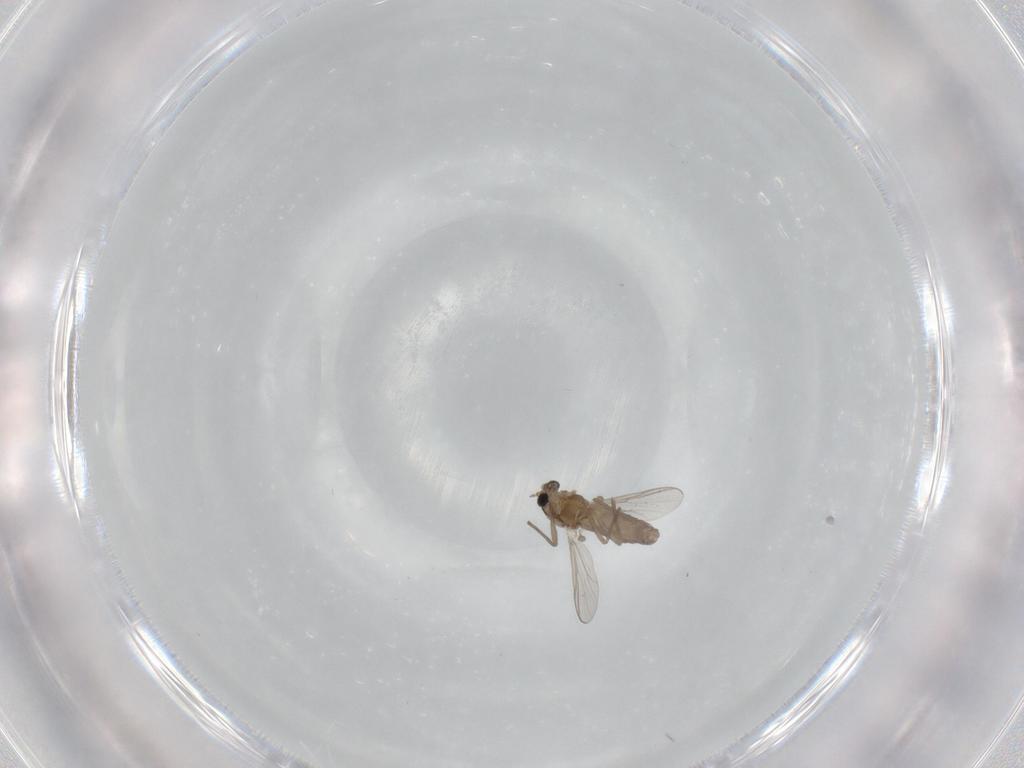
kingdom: Animalia
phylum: Arthropoda
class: Insecta
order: Diptera
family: Chironomidae
